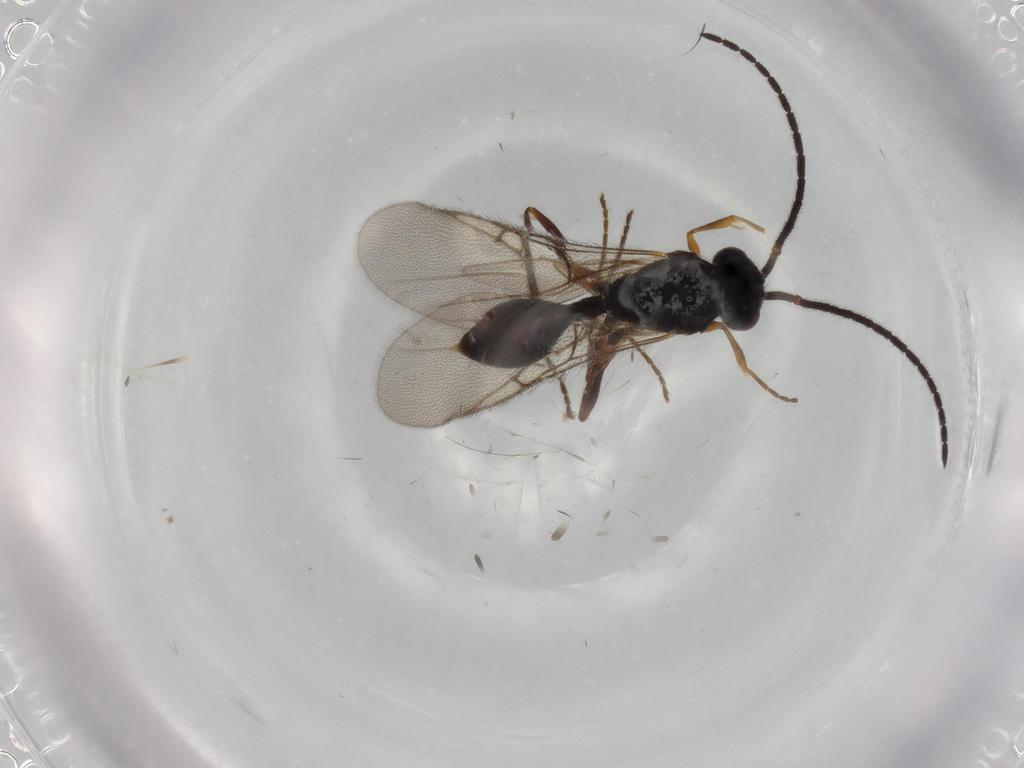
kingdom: Animalia
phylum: Arthropoda
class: Insecta
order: Hymenoptera
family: Diapriidae
